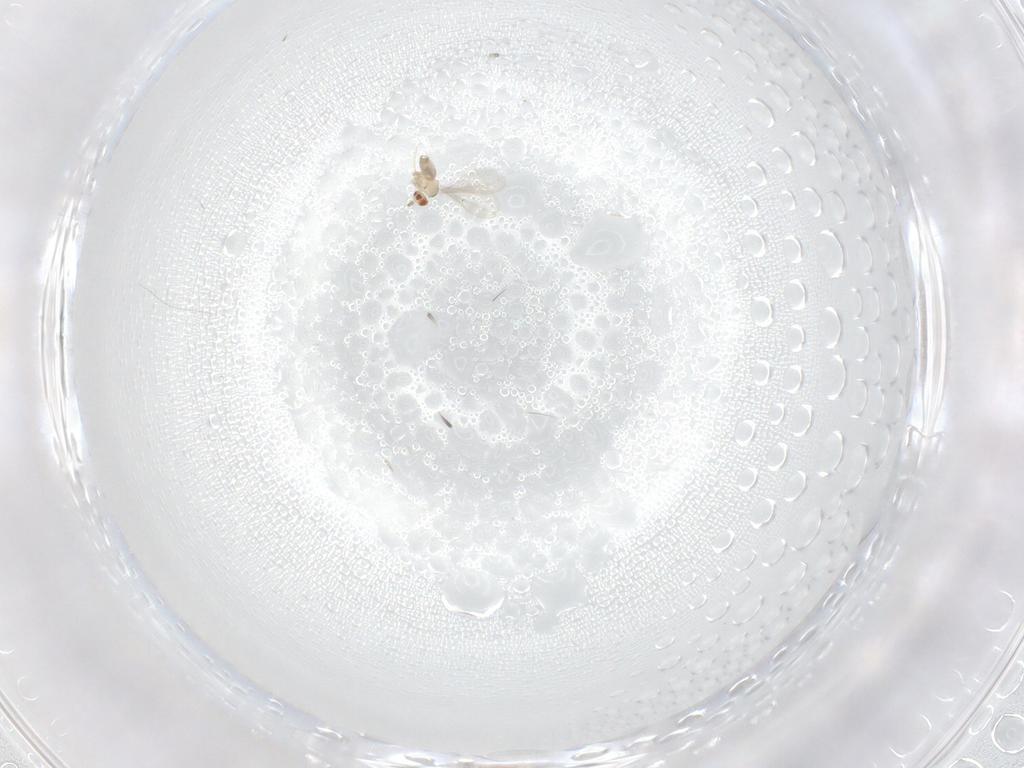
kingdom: Animalia
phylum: Arthropoda
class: Insecta
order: Diptera
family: Cecidomyiidae
